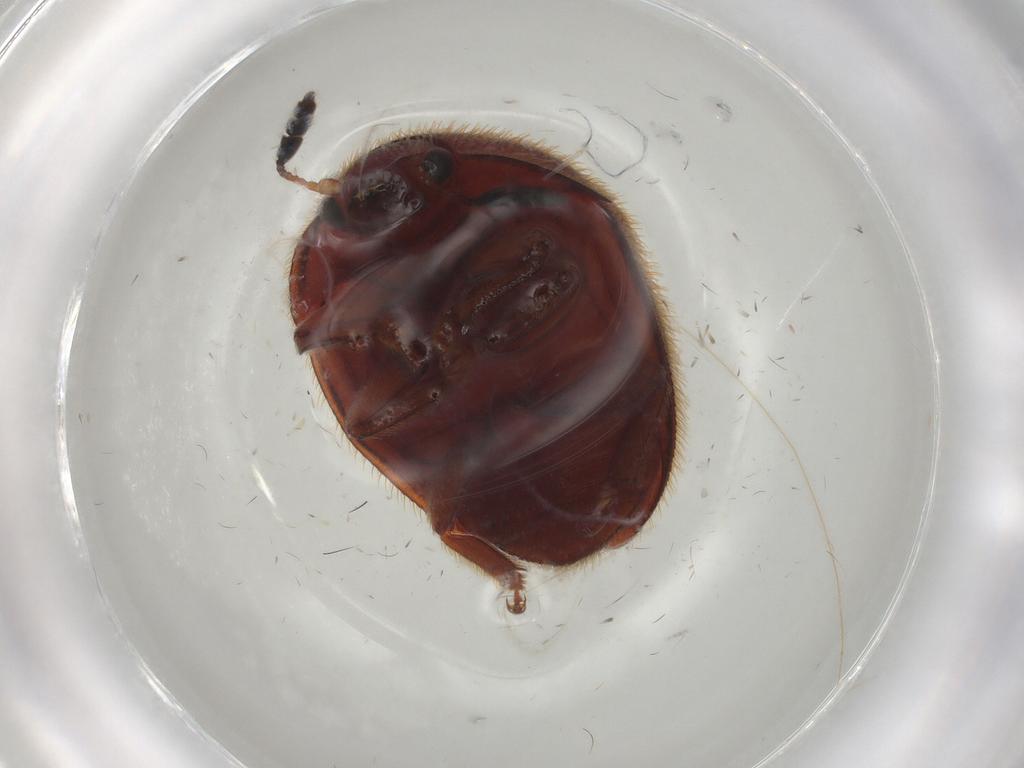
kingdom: Animalia
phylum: Arthropoda
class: Insecta
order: Coleoptera
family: Nitidulidae
